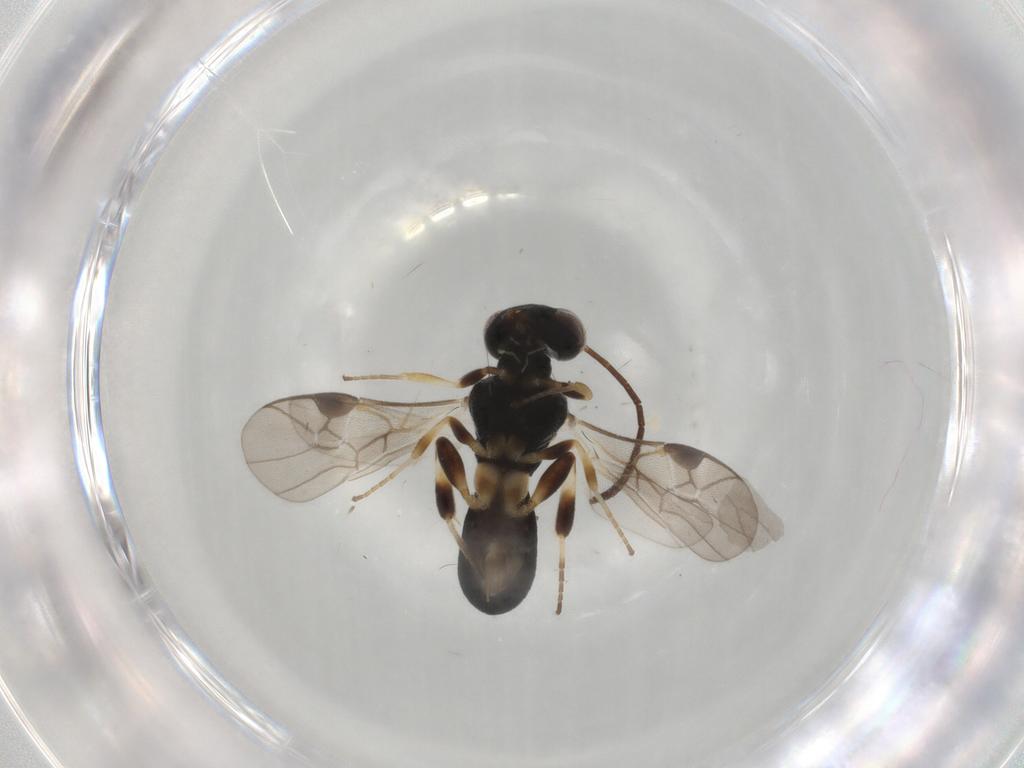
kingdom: Animalia
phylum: Arthropoda
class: Insecta
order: Hymenoptera
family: Braconidae
